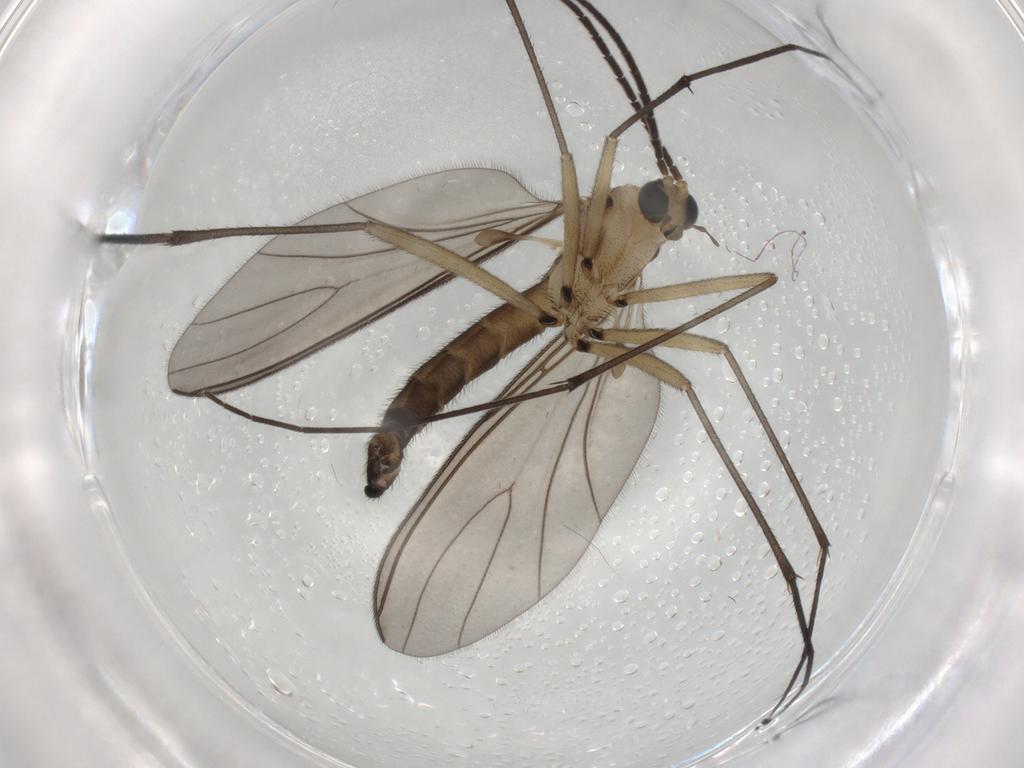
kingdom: Animalia
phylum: Arthropoda
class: Insecta
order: Diptera
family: Sciaridae
